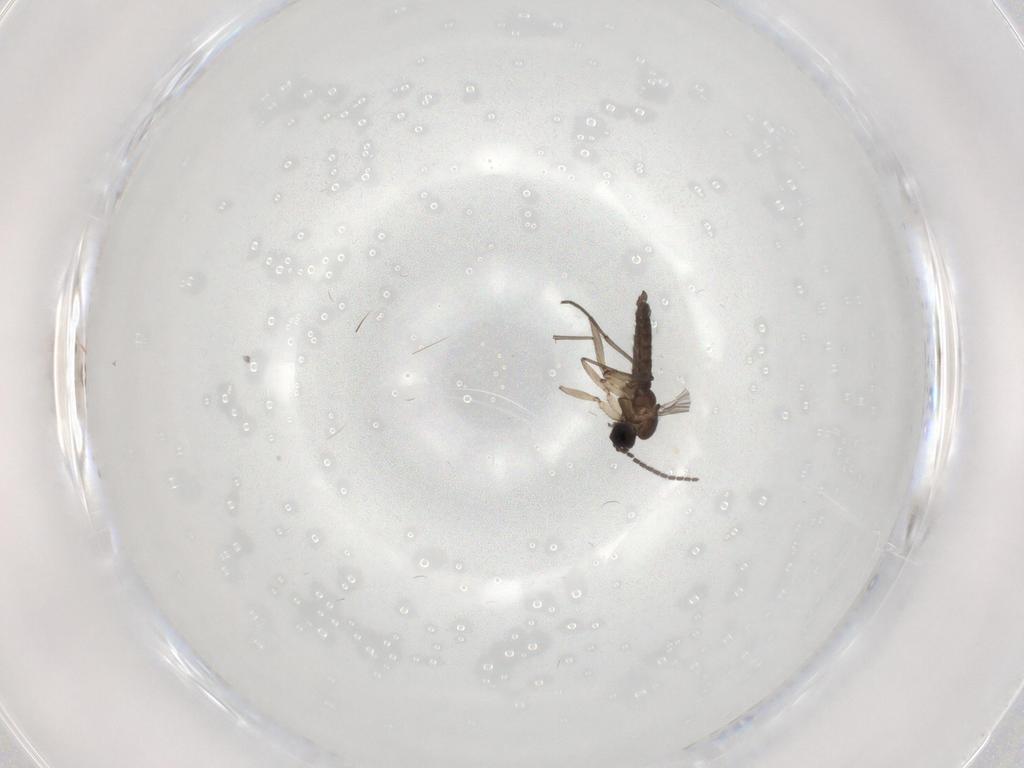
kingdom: Animalia
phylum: Arthropoda
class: Insecta
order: Diptera
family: Sciaridae
